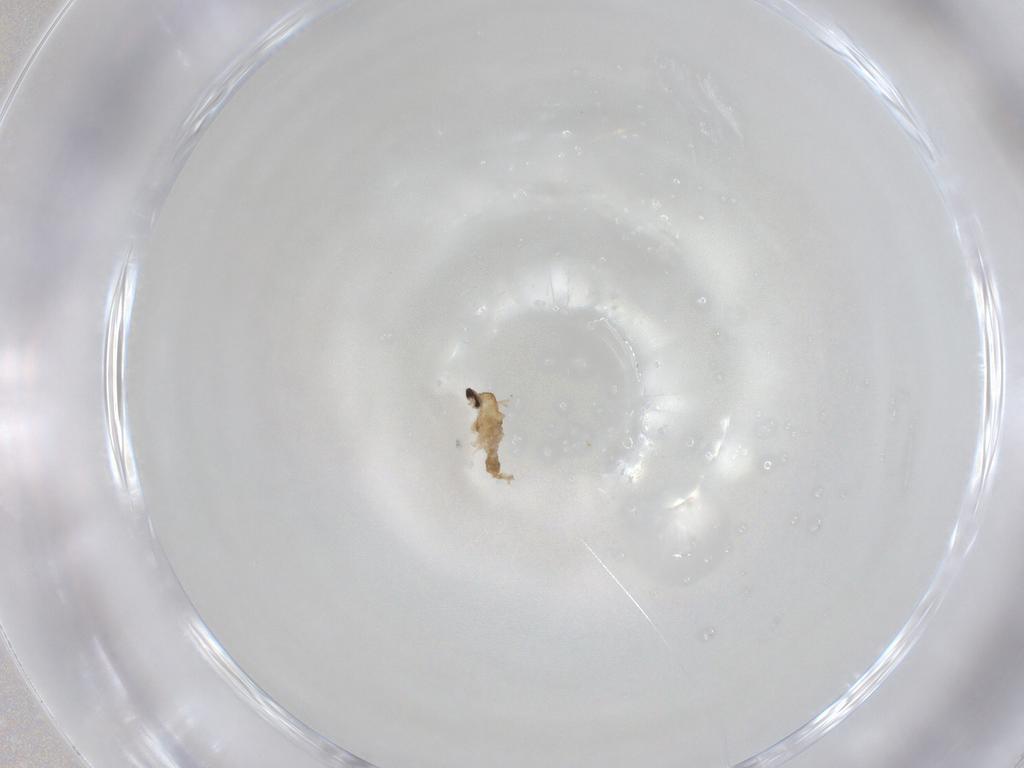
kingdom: Animalia
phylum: Arthropoda
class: Insecta
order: Diptera
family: Cecidomyiidae
